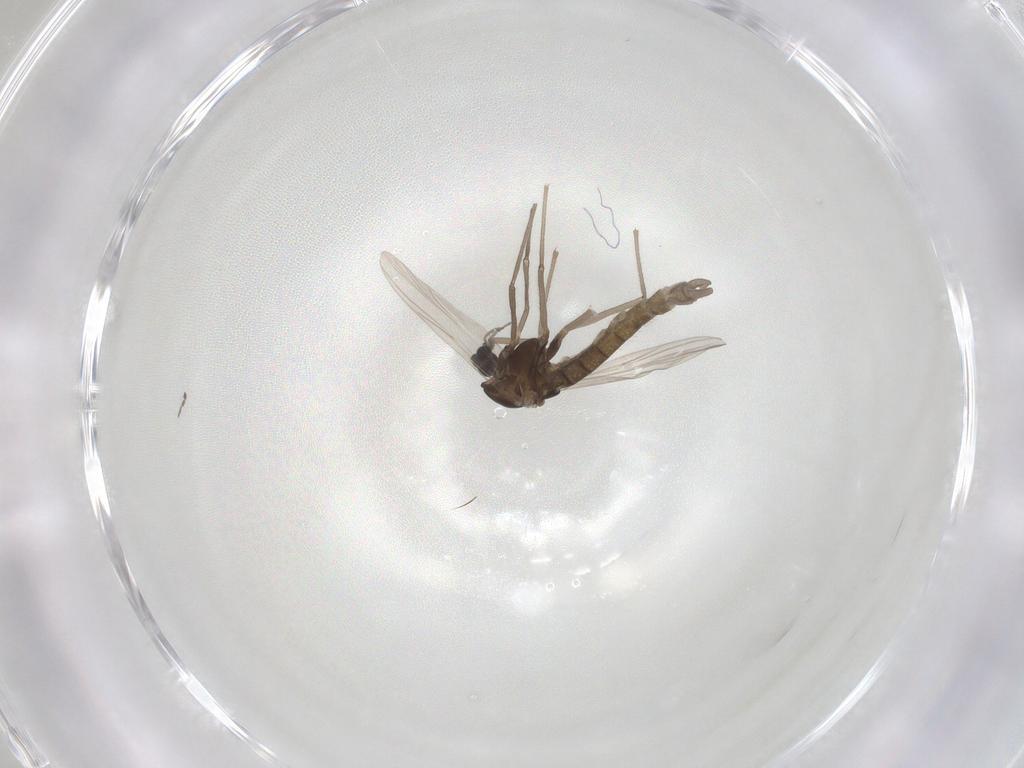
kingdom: Animalia
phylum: Arthropoda
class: Insecta
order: Diptera
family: Chironomidae
